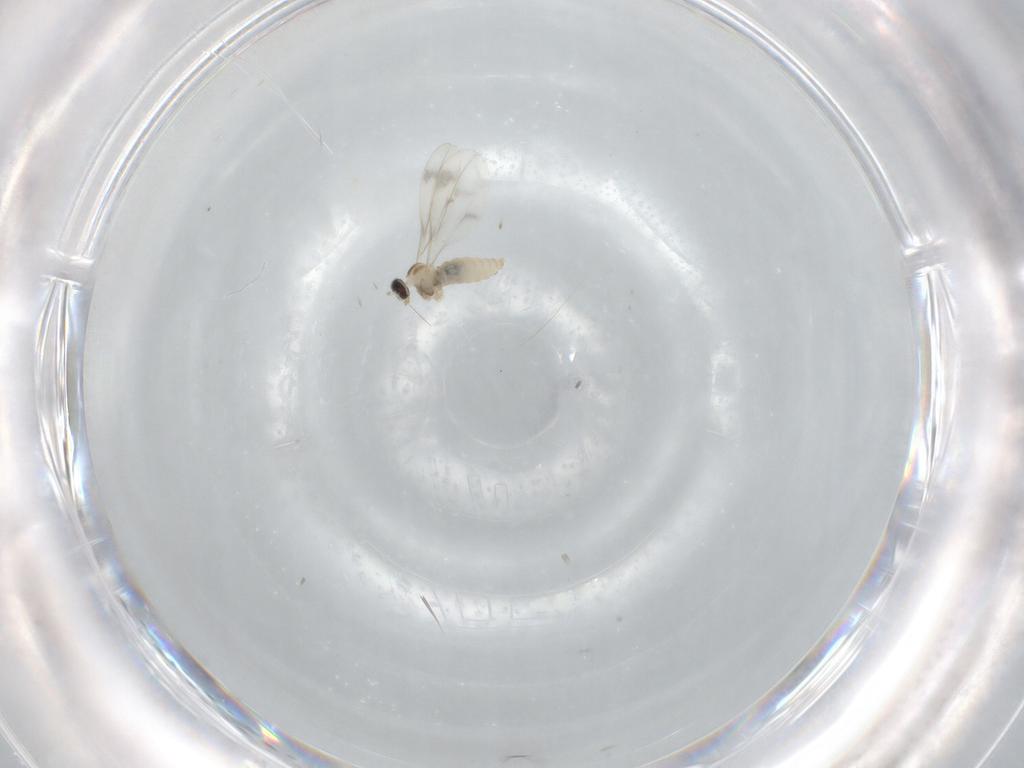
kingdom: Animalia
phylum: Arthropoda
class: Insecta
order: Diptera
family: Cecidomyiidae
